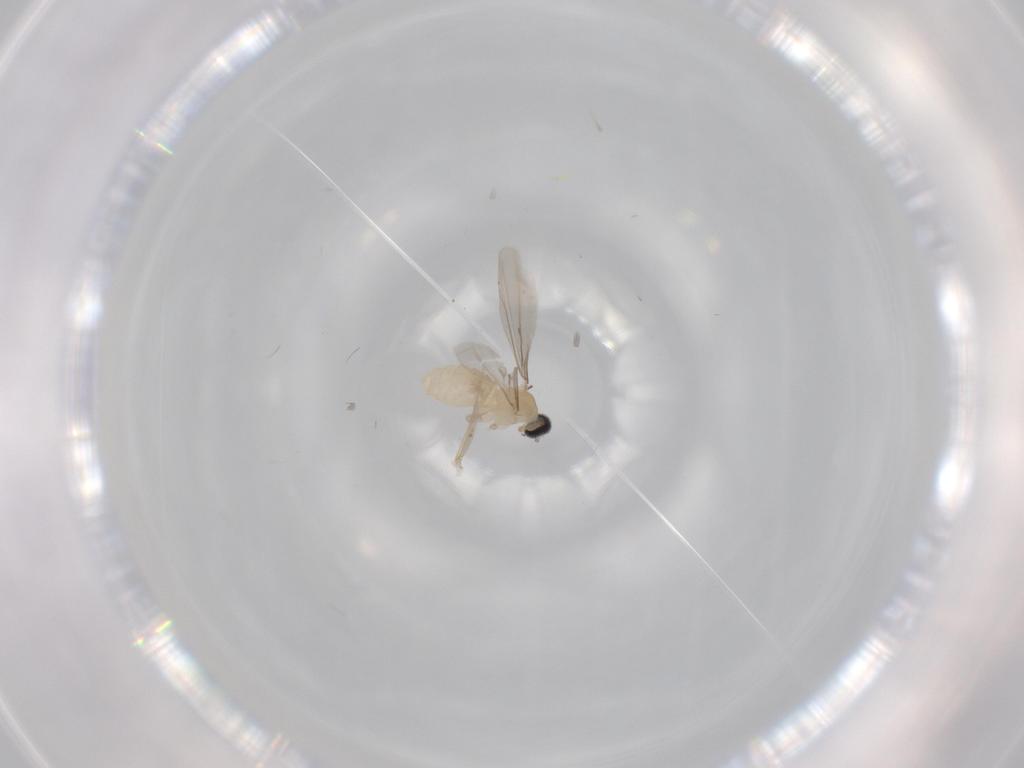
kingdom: Animalia
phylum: Arthropoda
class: Insecta
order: Diptera
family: Cecidomyiidae
